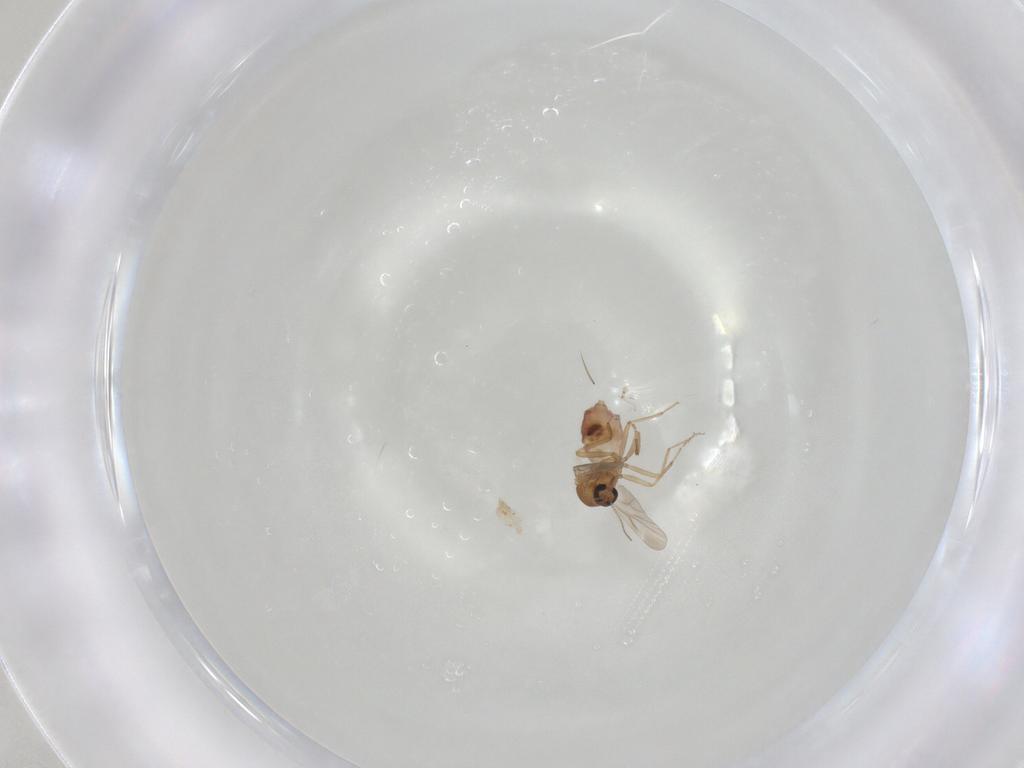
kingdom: Animalia
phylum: Arthropoda
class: Insecta
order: Diptera
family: Ceratopogonidae
